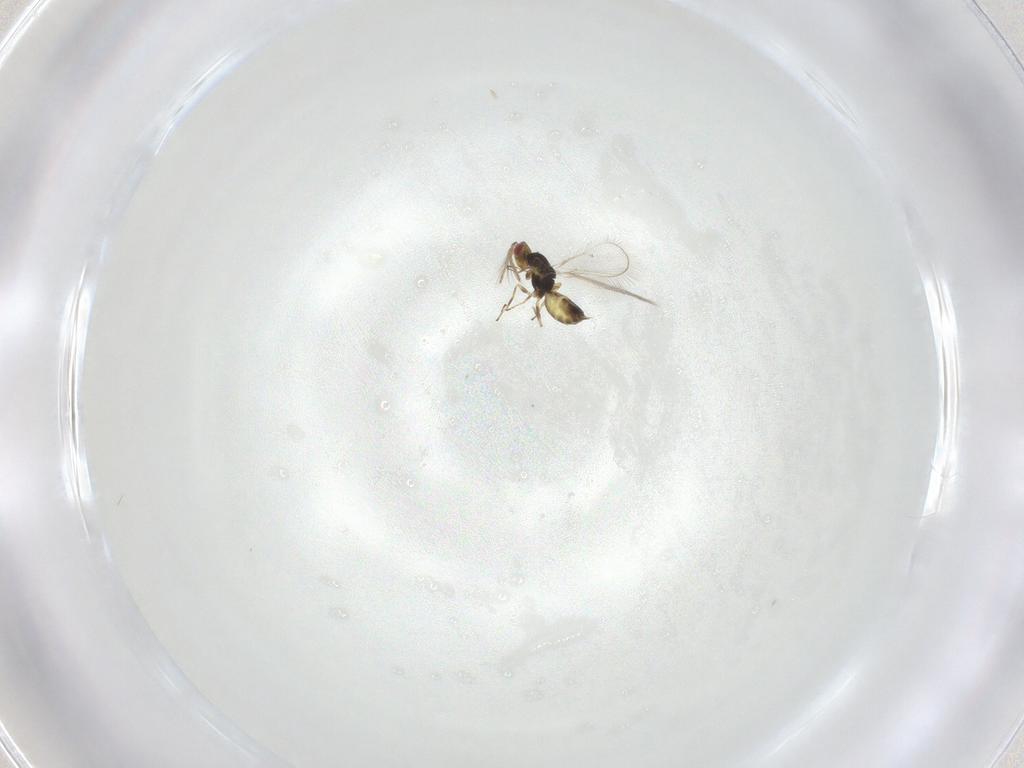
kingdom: Animalia
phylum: Arthropoda
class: Insecta
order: Hymenoptera
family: Eulophidae
